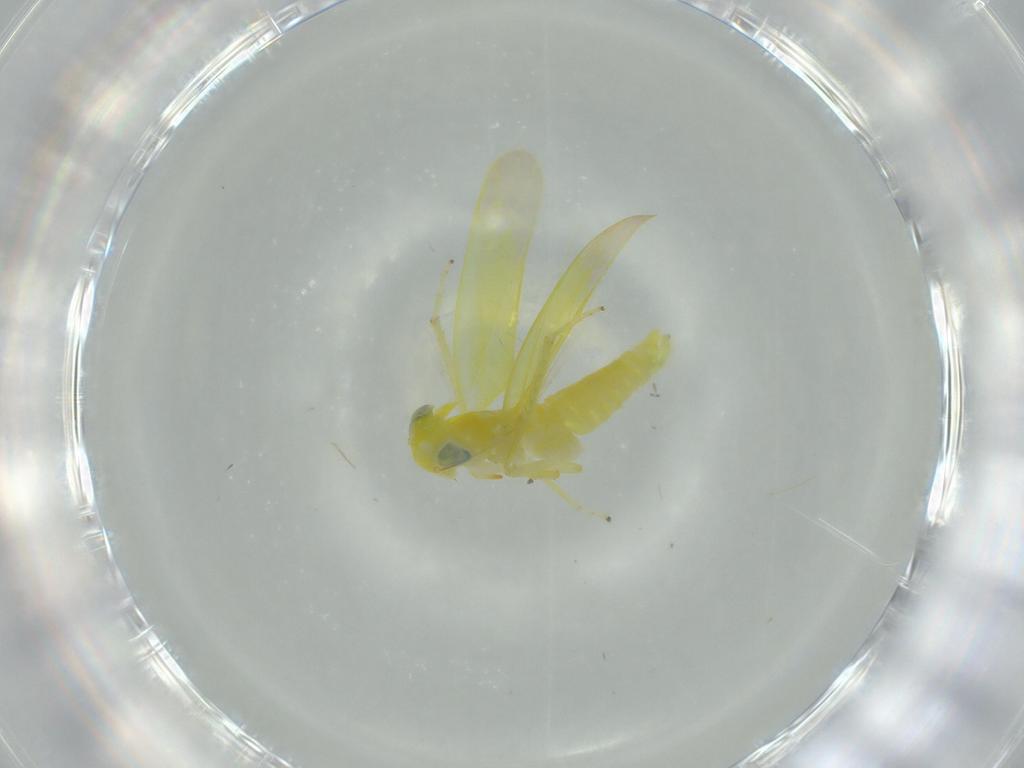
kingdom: Animalia
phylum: Arthropoda
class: Insecta
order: Hemiptera
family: Cicadellidae
